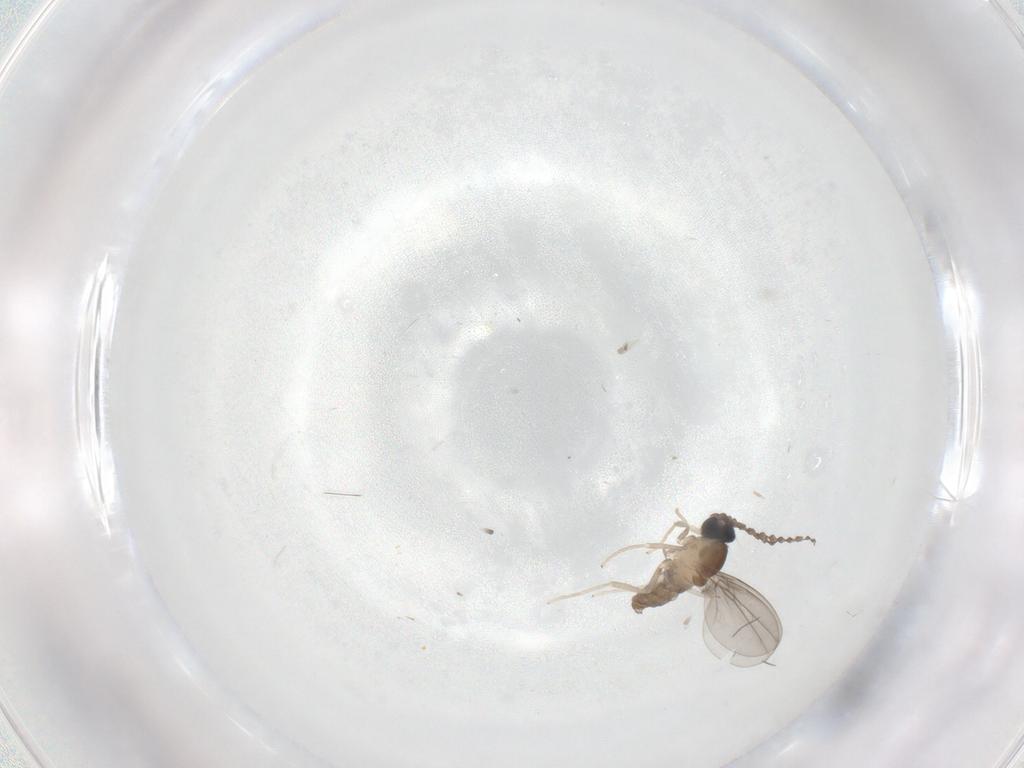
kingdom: Animalia
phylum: Arthropoda
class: Insecta
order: Lepidoptera
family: Tineidae
